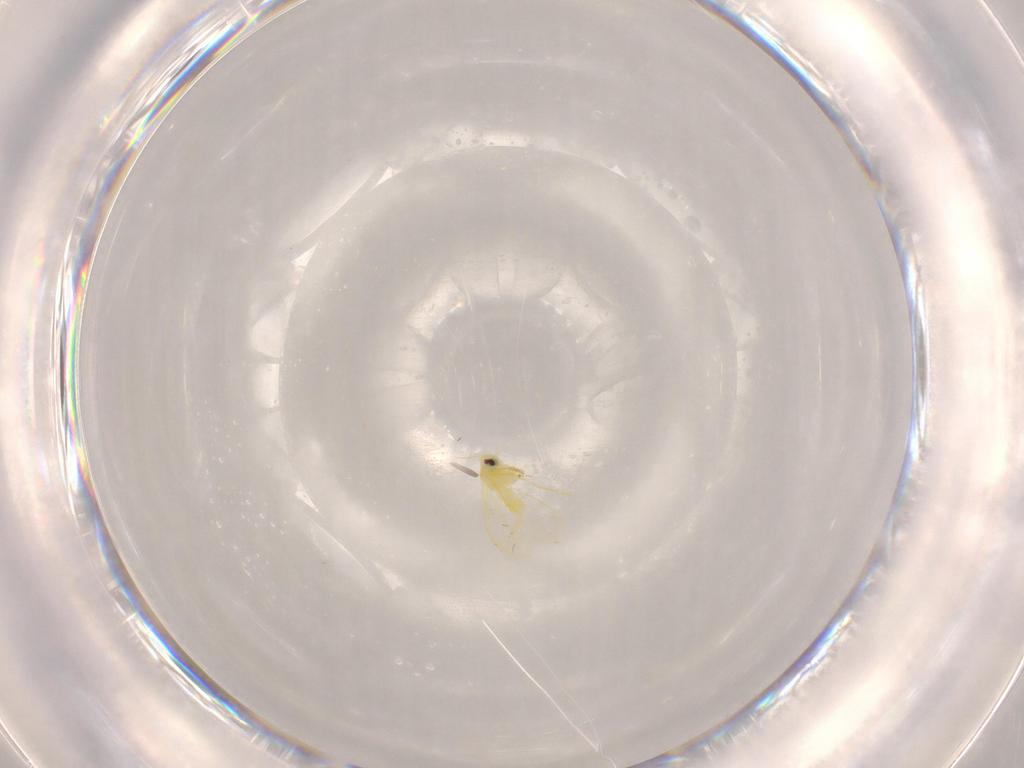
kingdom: Animalia
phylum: Arthropoda
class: Insecta
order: Hemiptera
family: Aleyrodidae
